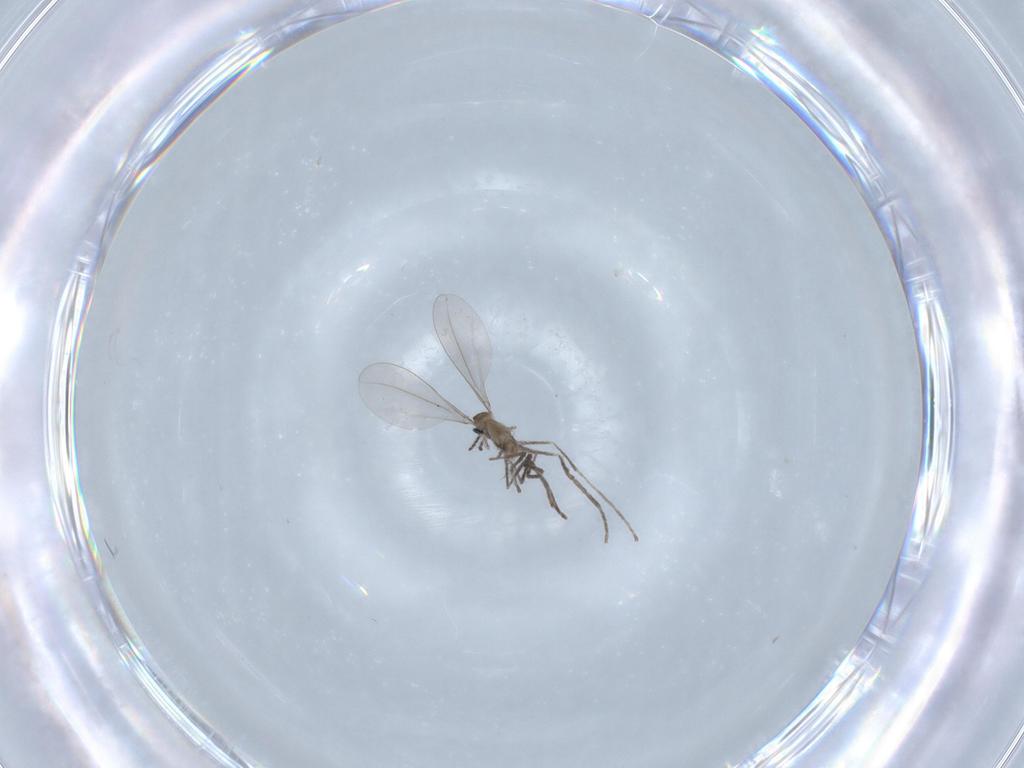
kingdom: Animalia
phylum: Arthropoda
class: Insecta
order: Diptera
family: Cecidomyiidae
